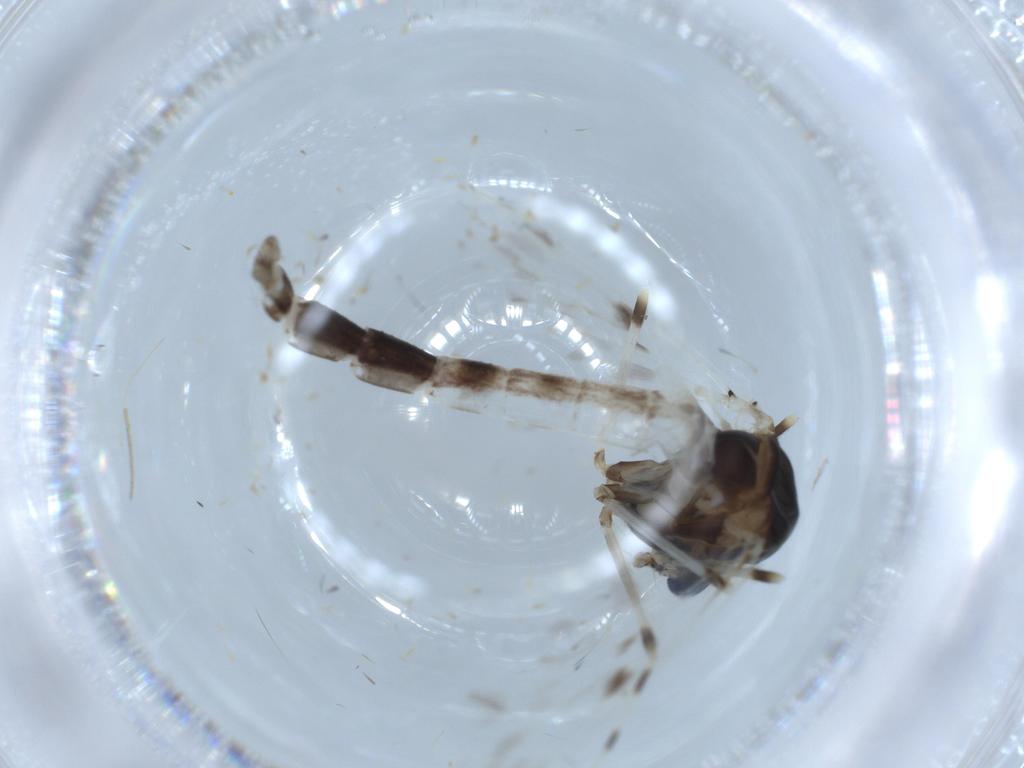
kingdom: Animalia
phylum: Arthropoda
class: Insecta
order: Diptera
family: Chironomidae
